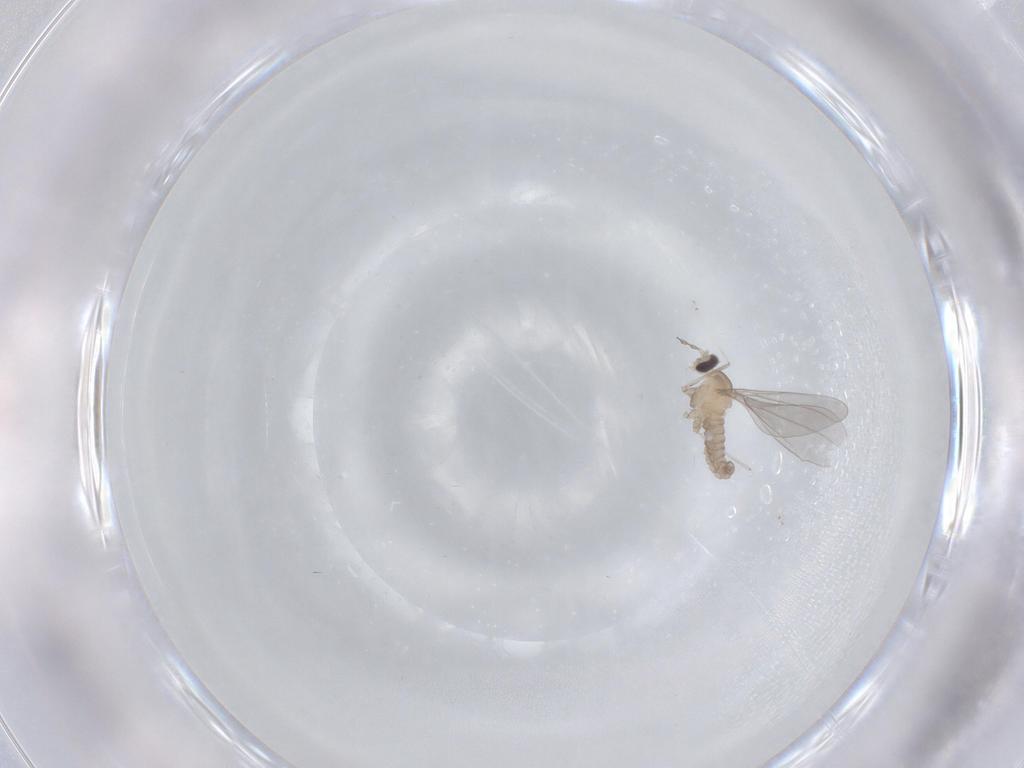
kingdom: Animalia
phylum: Arthropoda
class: Insecta
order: Diptera
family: Tipulidae
